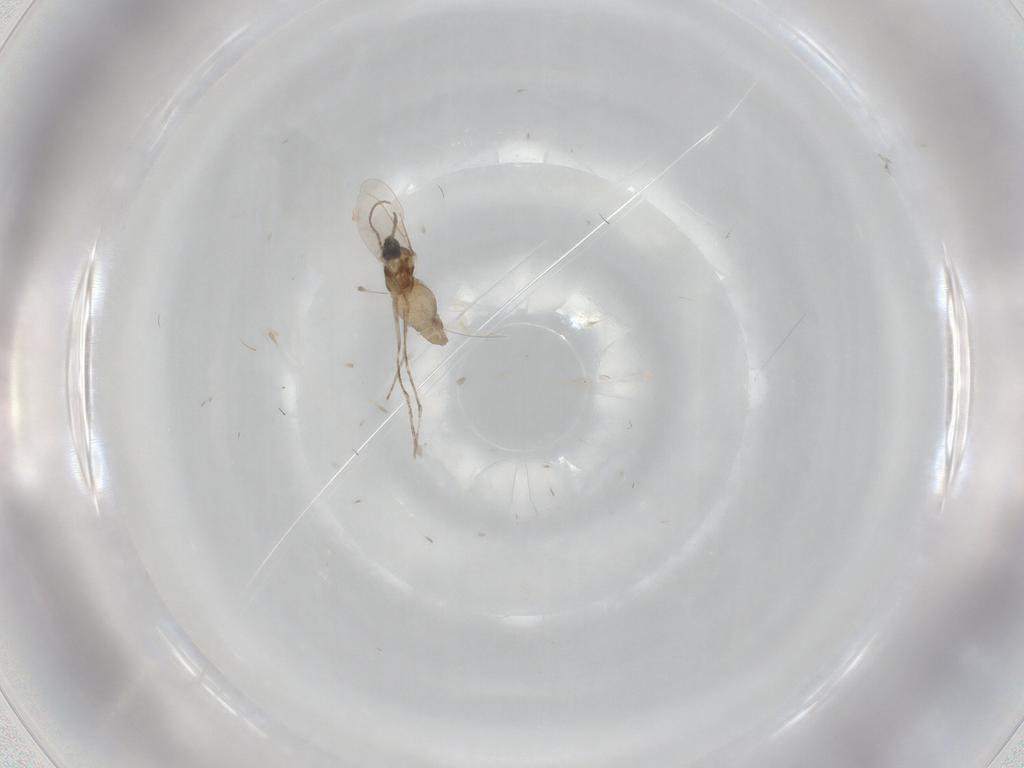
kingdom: Animalia
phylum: Arthropoda
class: Insecta
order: Diptera
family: Cecidomyiidae
